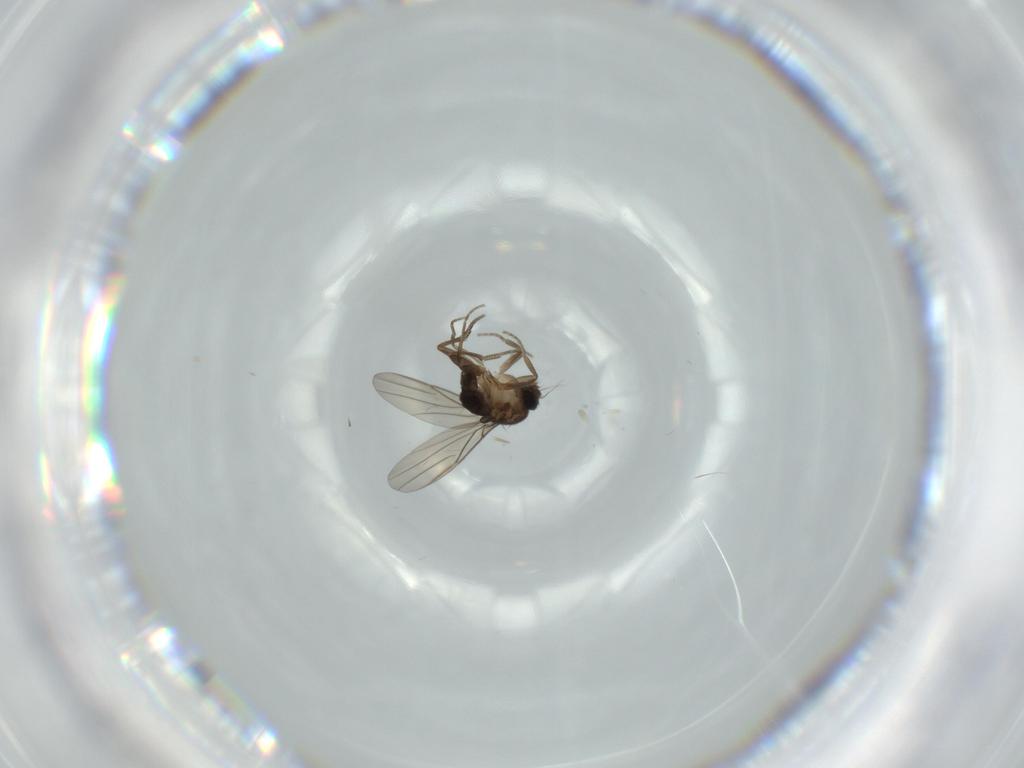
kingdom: Animalia
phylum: Arthropoda
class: Insecta
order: Diptera
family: Phoridae
